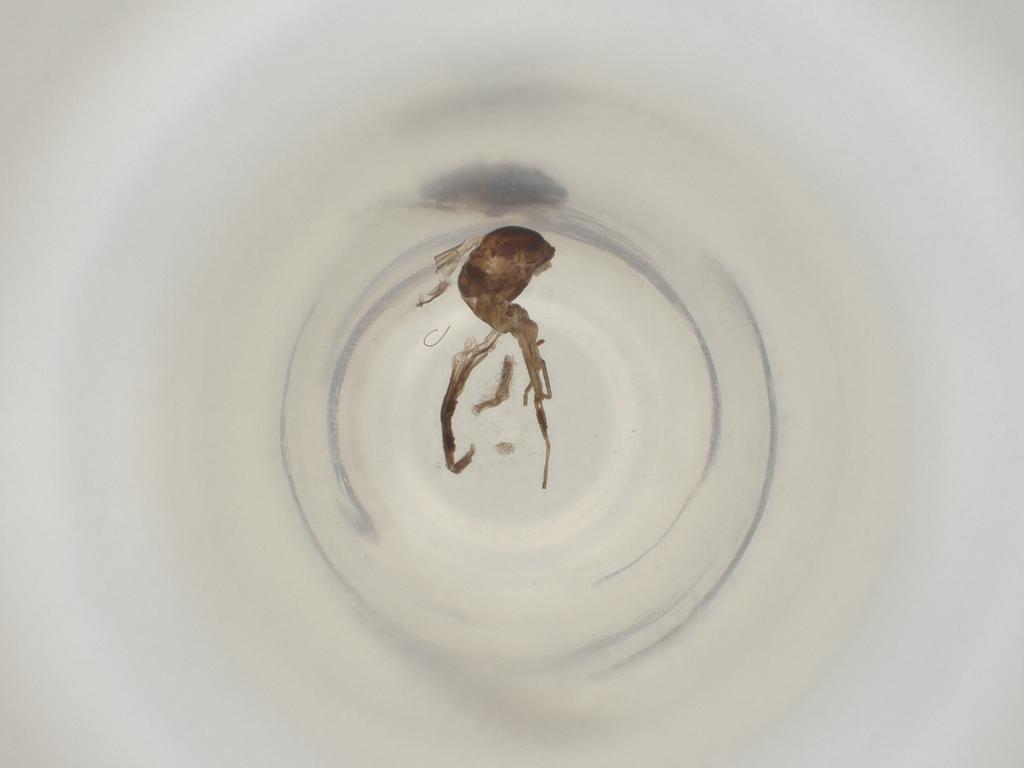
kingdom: Animalia
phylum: Arthropoda
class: Insecta
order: Diptera
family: Cecidomyiidae
